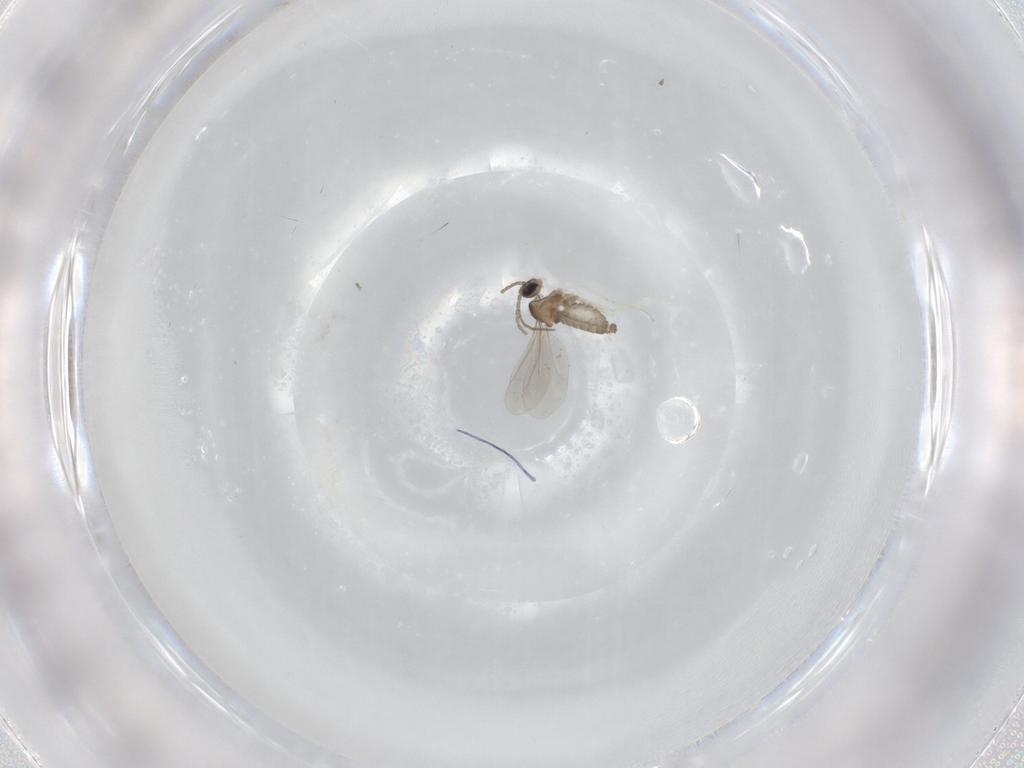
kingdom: Animalia
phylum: Arthropoda
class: Insecta
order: Diptera
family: Cecidomyiidae
